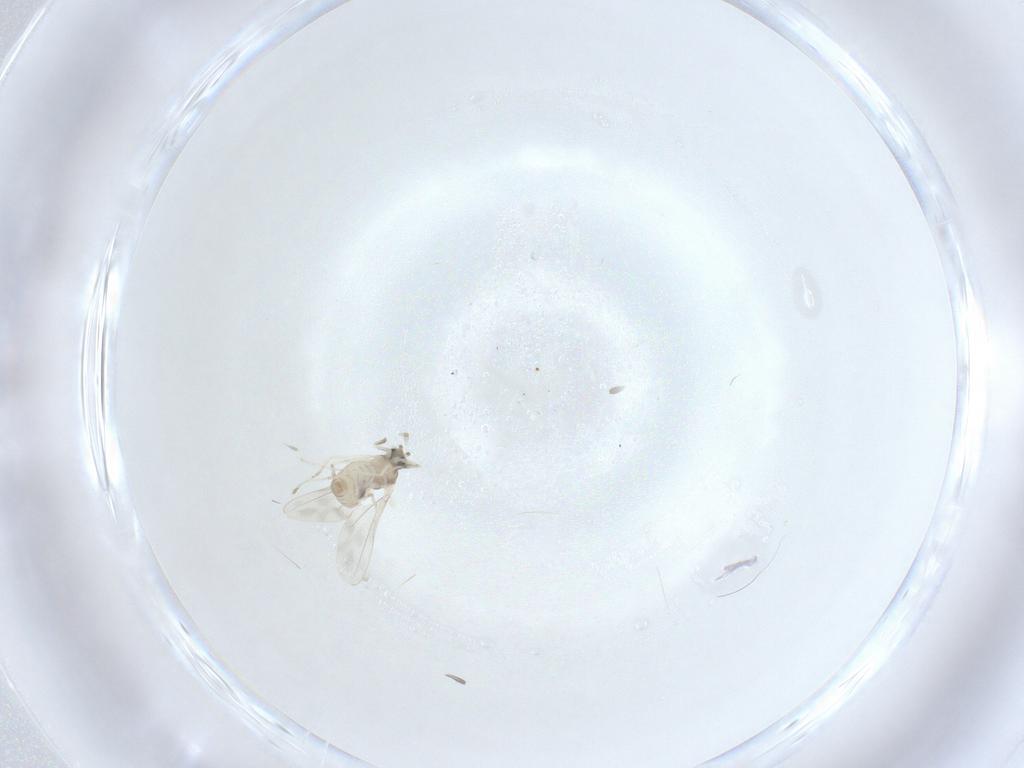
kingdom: Animalia
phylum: Arthropoda
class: Insecta
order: Diptera
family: Cecidomyiidae
